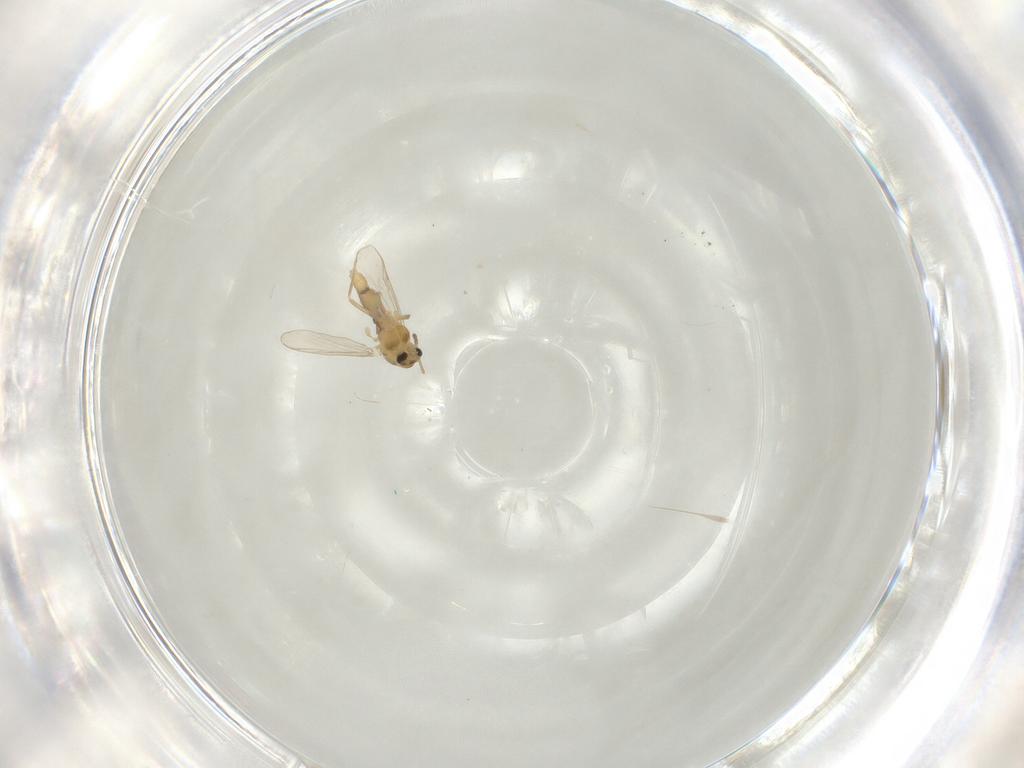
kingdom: Animalia
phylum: Arthropoda
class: Insecta
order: Diptera
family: Chironomidae
